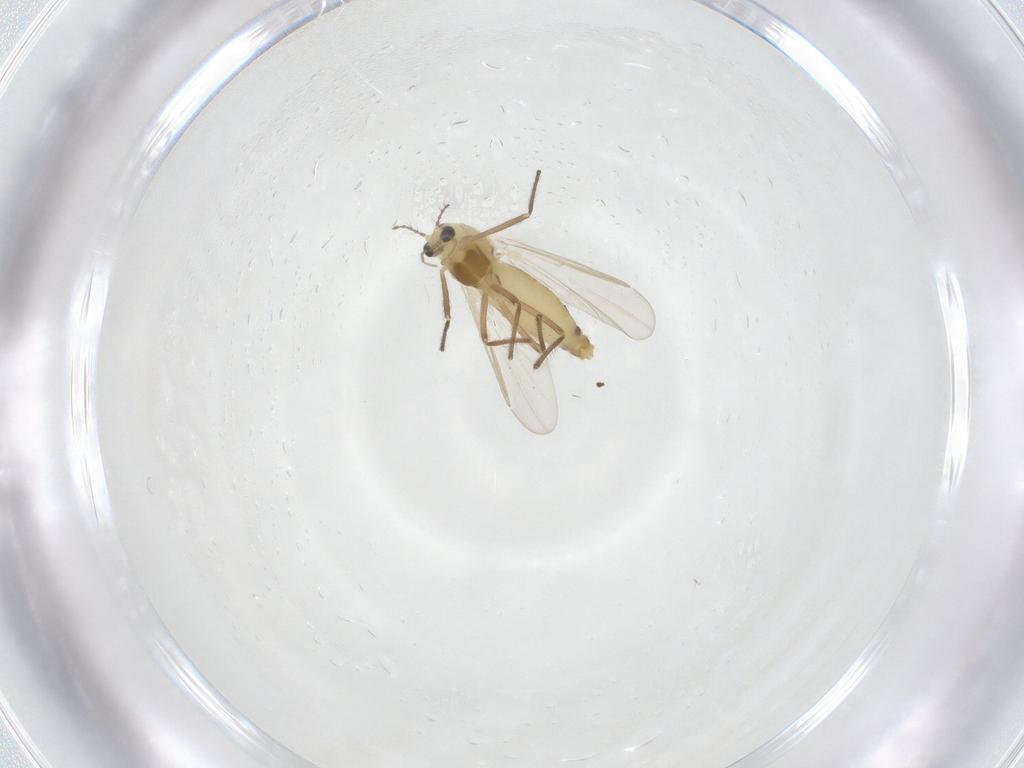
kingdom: Animalia
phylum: Arthropoda
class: Insecta
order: Diptera
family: Chironomidae
